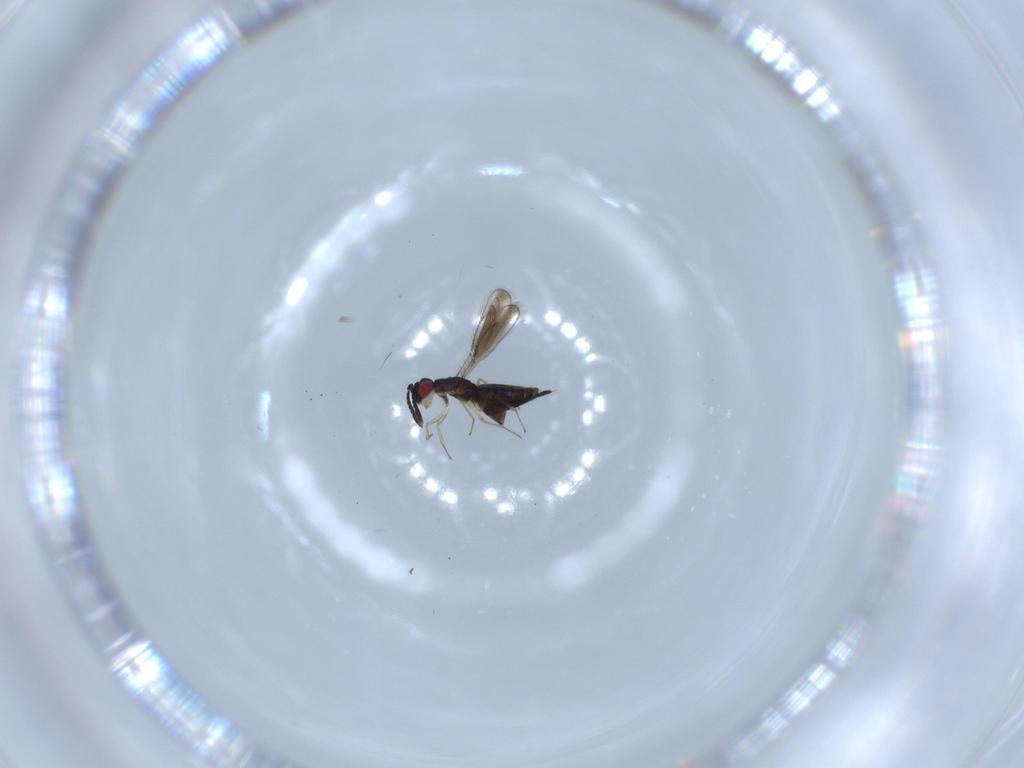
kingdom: Animalia
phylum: Arthropoda
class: Insecta
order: Hymenoptera
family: Pteromalidae
